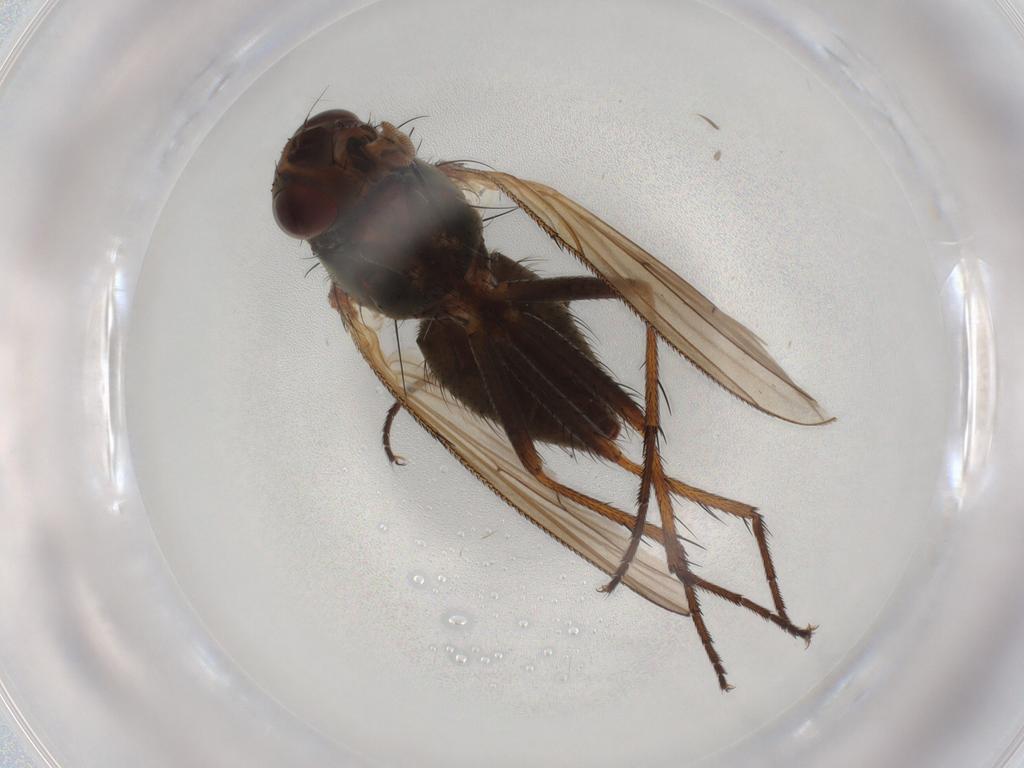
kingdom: Animalia
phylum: Arthropoda
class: Insecta
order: Diptera
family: Anthomyiidae
